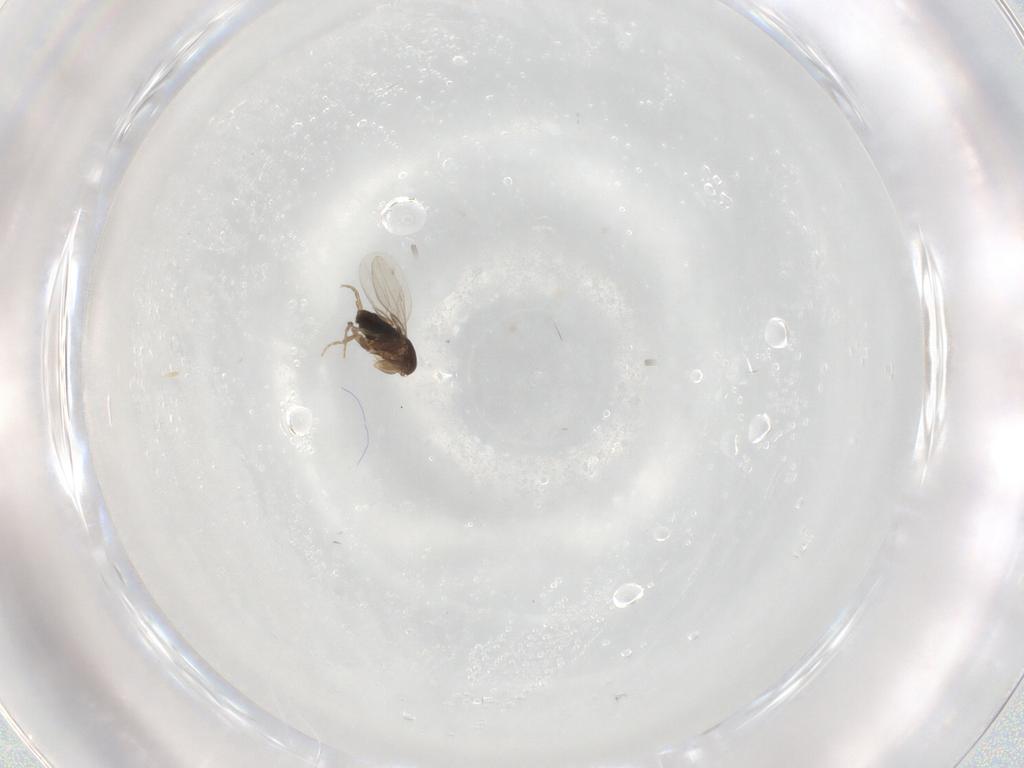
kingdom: Animalia
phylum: Arthropoda
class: Insecta
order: Diptera
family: Phoridae
